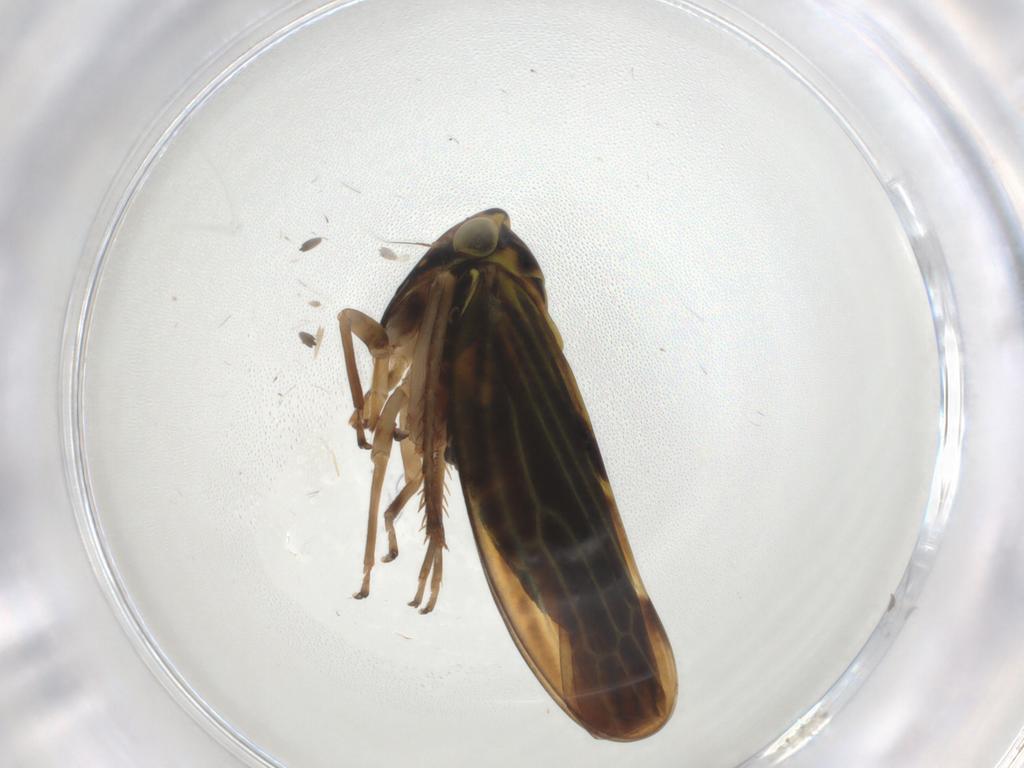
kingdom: Animalia
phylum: Arthropoda
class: Insecta
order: Hemiptera
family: Cicadellidae
